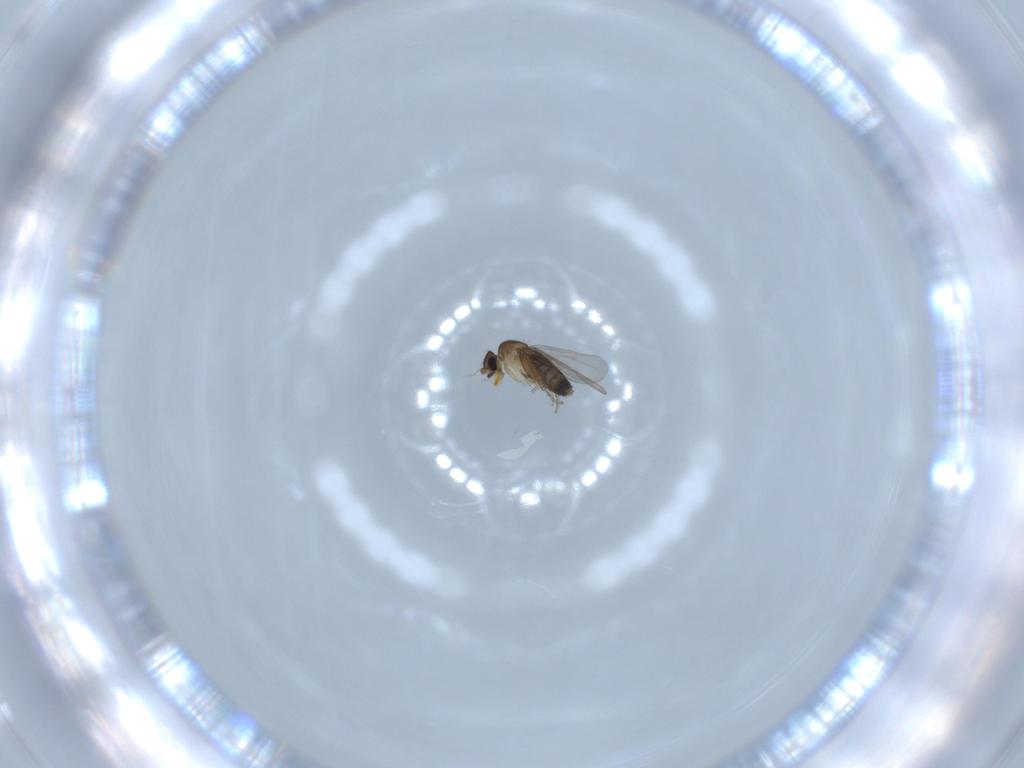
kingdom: Animalia
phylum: Arthropoda
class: Insecta
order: Diptera
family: Phoridae
